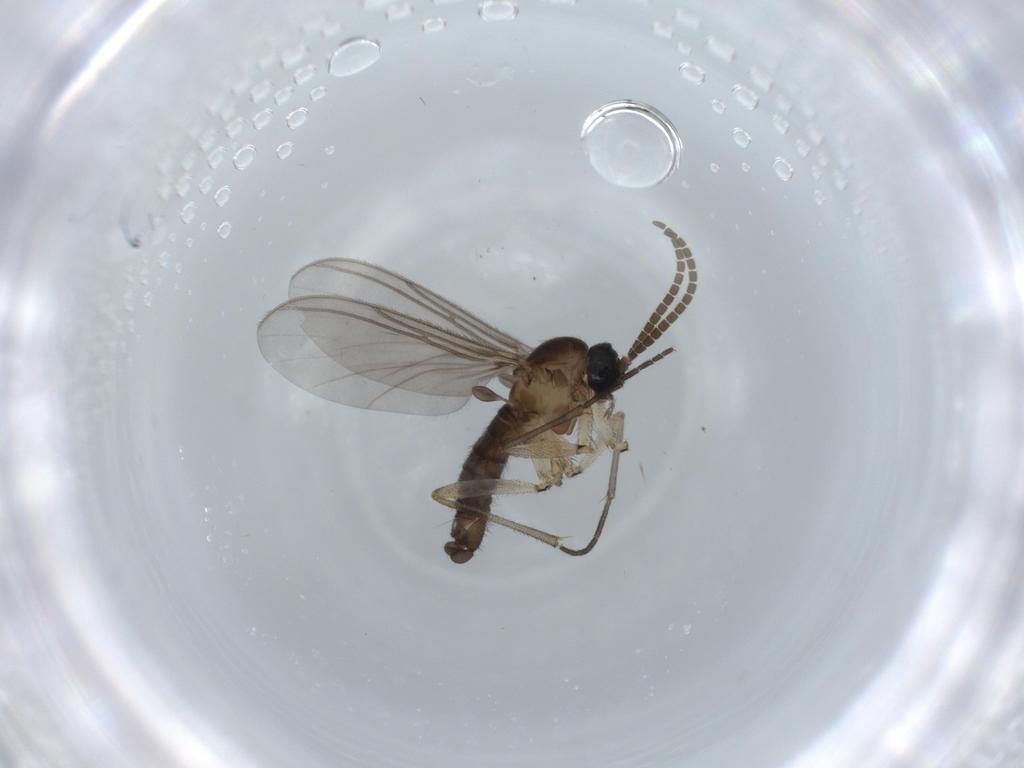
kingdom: Animalia
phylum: Arthropoda
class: Insecta
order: Diptera
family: Sciaridae
